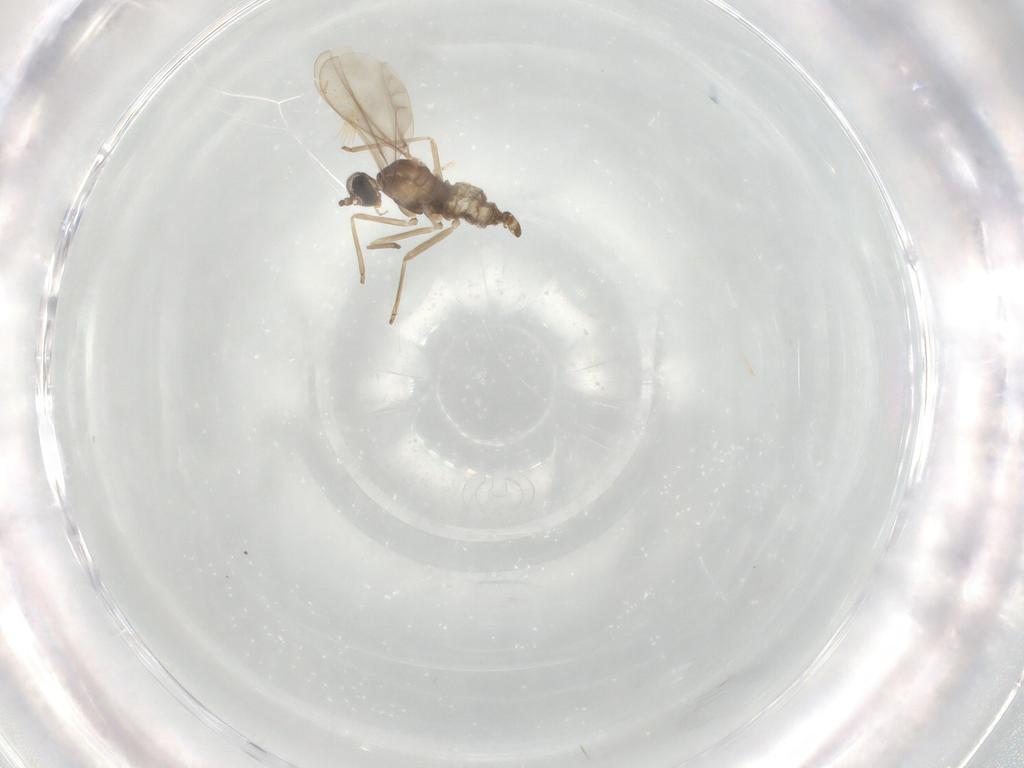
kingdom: Animalia
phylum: Arthropoda
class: Insecta
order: Diptera
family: Cecidomyiidae
